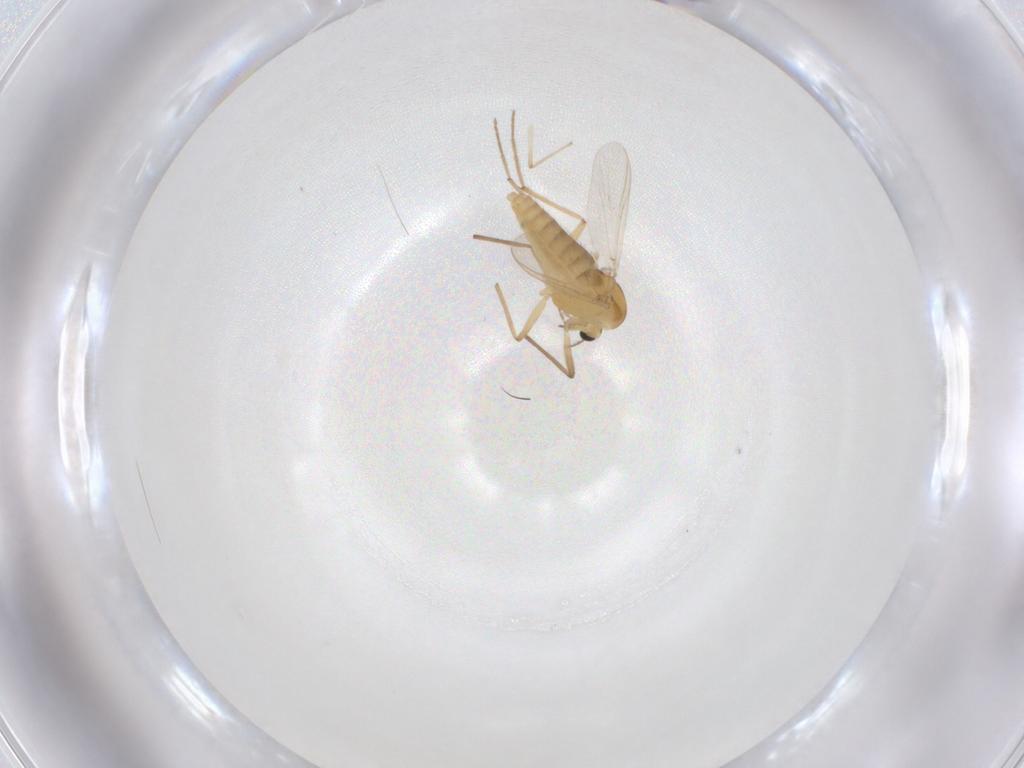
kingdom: Animalia
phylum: Arthropoda
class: Insecta
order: Diptera
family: Chironomidae
